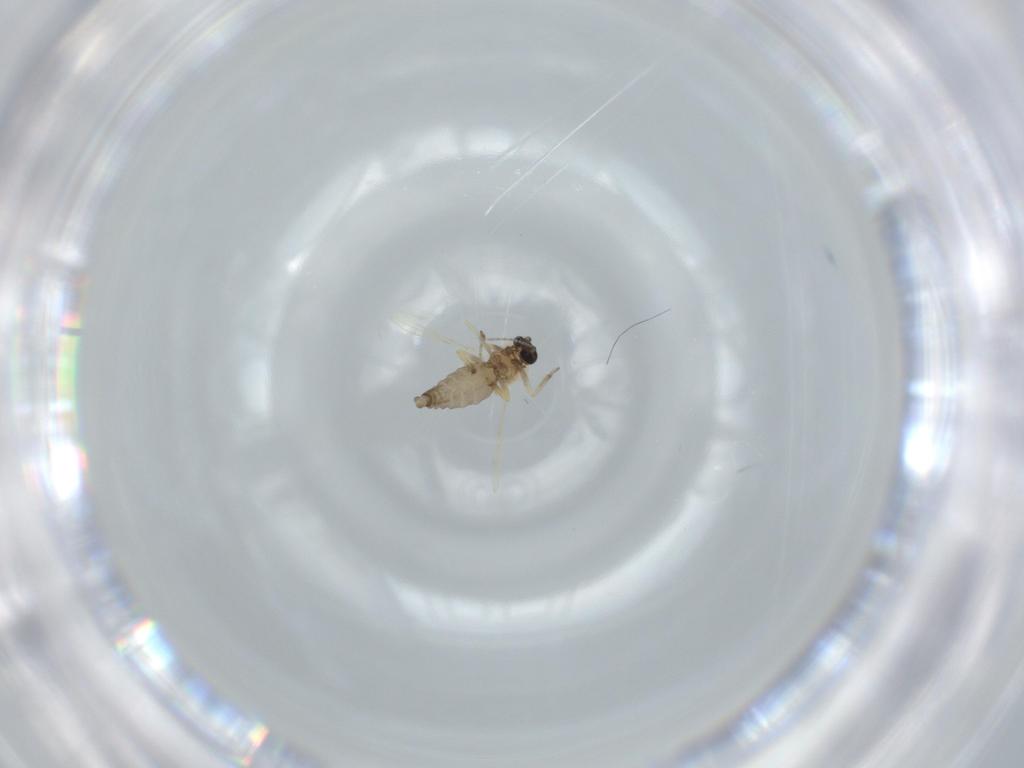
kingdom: Animalia
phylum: Arthropoda
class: Insecta
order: Diptera
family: Ceratopogonidae
